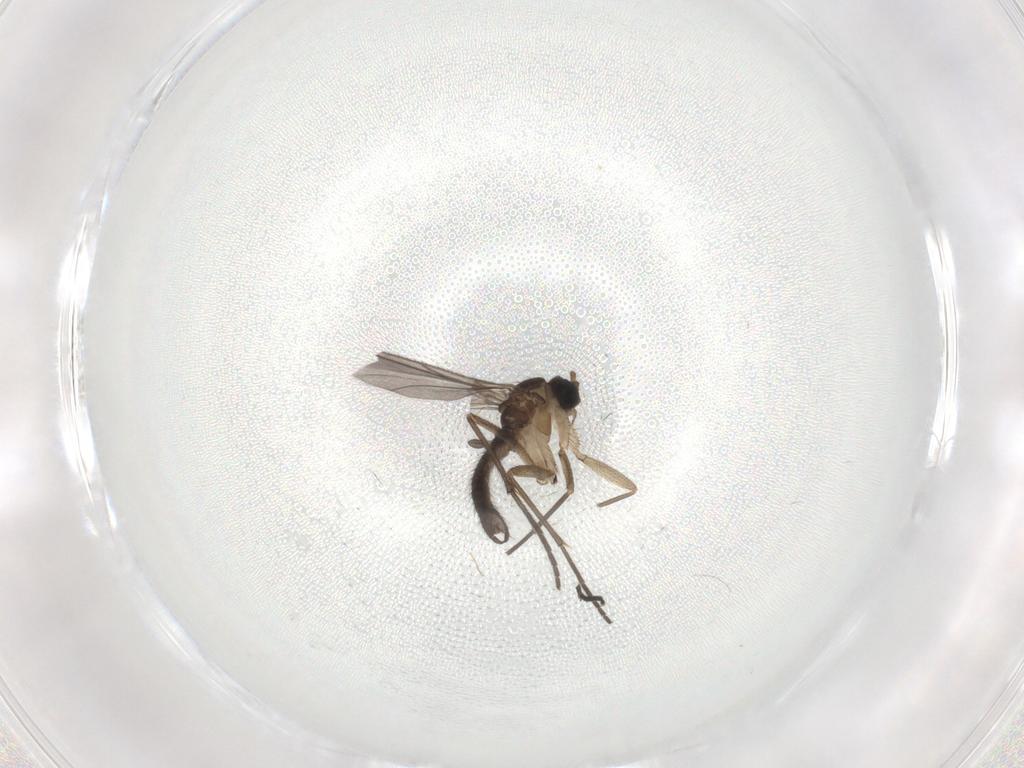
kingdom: Animalia
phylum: Arthropoda
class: Insecta
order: Diptera
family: Sciaridae
